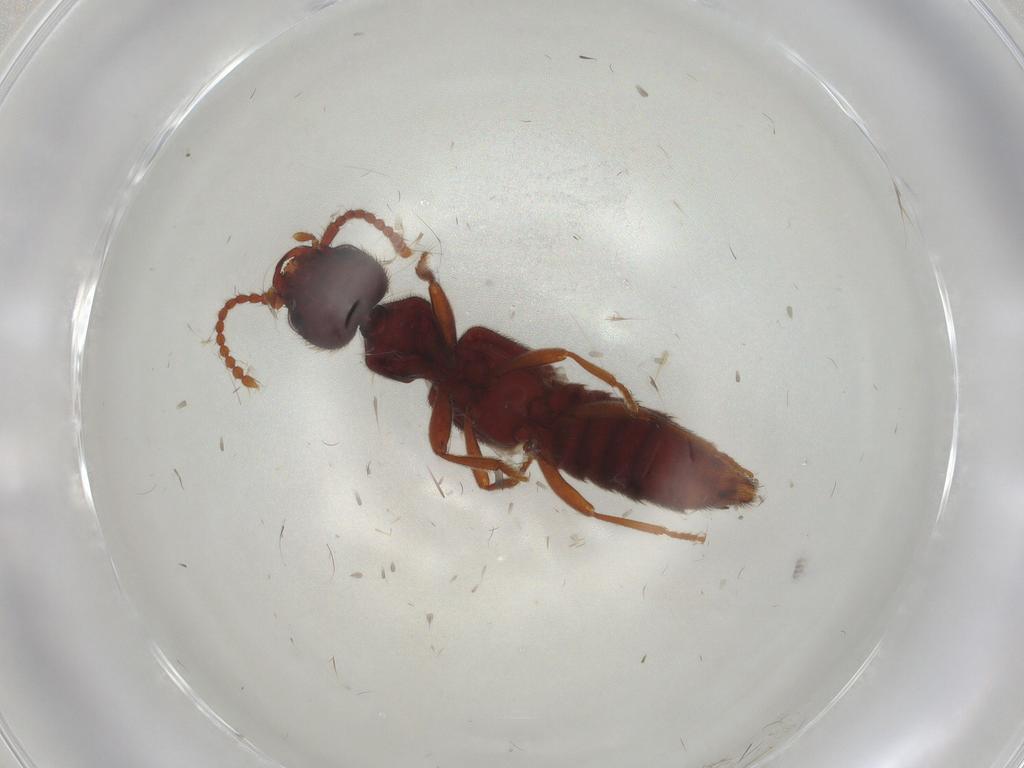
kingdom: Animalia
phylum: Arthropoda
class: Insecta
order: Coleoptera
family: Staphylinidae
